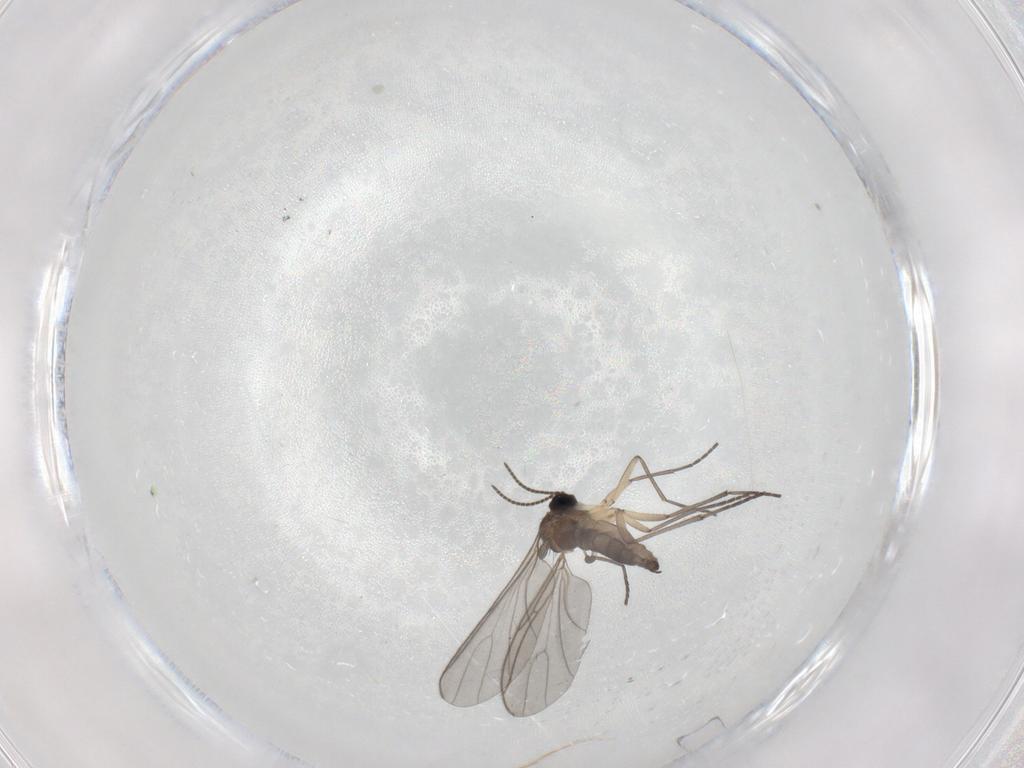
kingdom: Animalia
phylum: Arthropoda
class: Insecta
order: Diptera
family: Sciaridae
